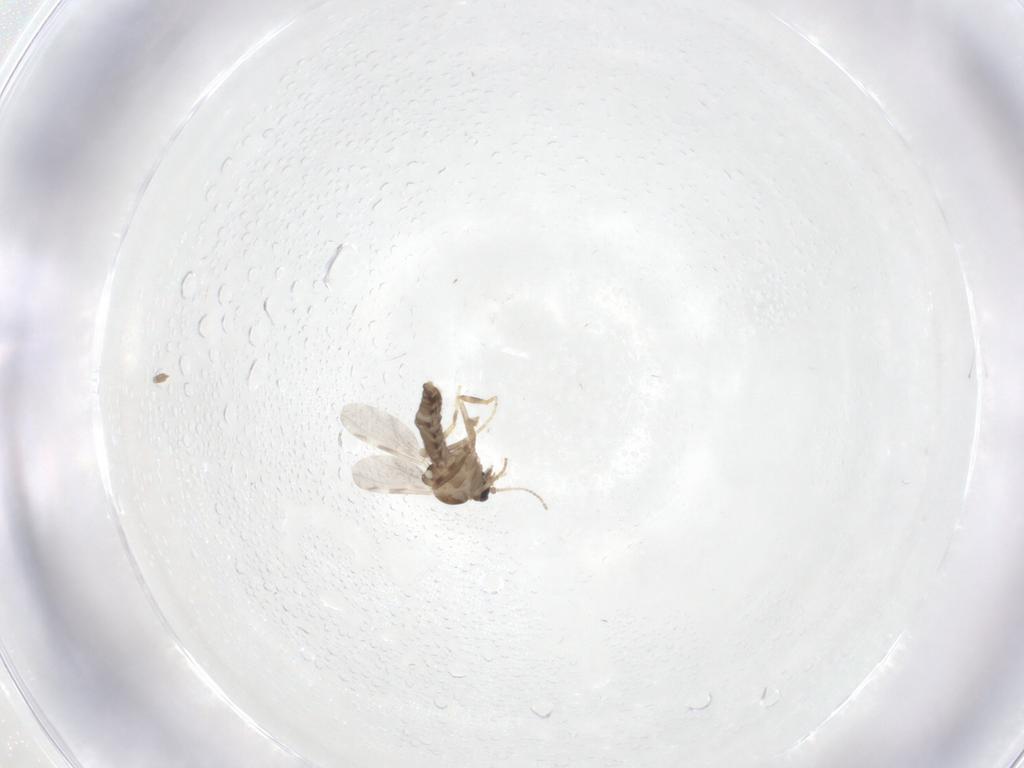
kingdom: Animalia
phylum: Arthropoda
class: Insecta
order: Diptera
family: Ceratopogonidae
